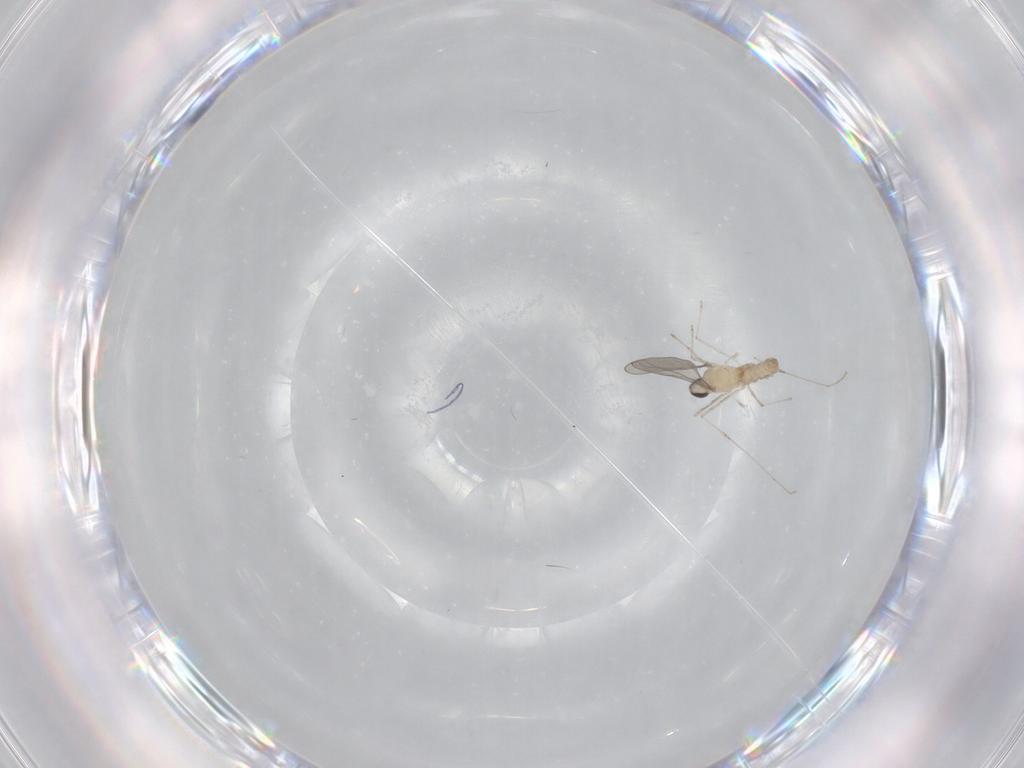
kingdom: Animalia
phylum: Arthropoda
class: Insecta
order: Diptera
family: Cecidomyiidae
